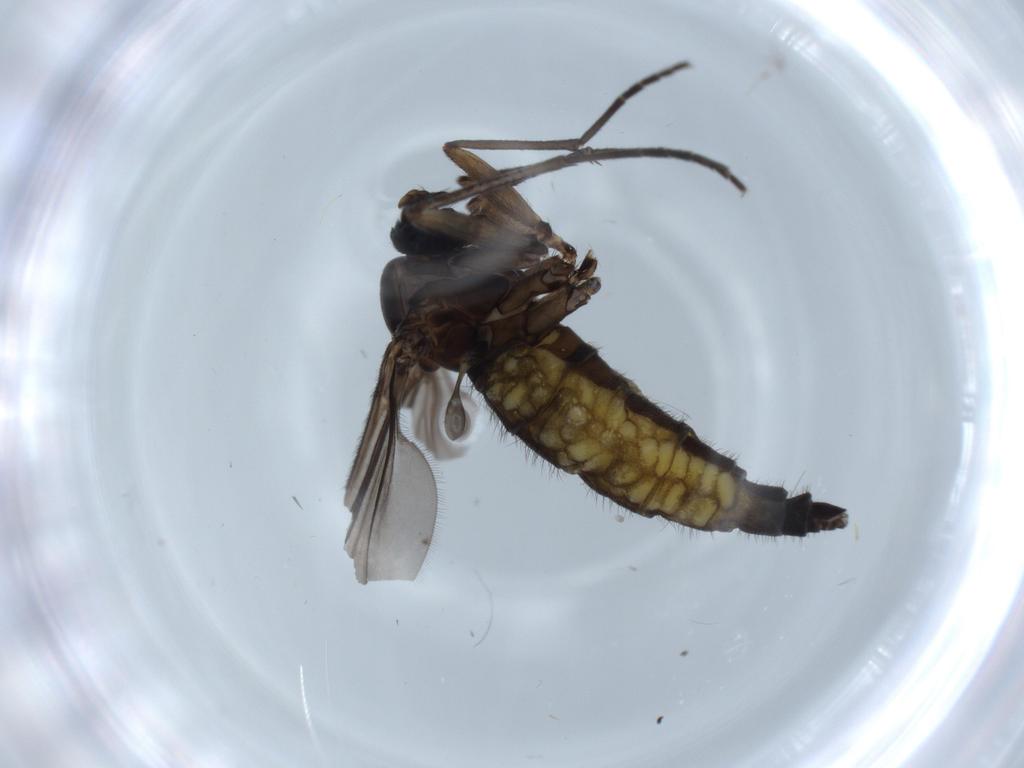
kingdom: Animalia
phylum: Arthropoda
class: Insecta
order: Diptera
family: Sciaridae
